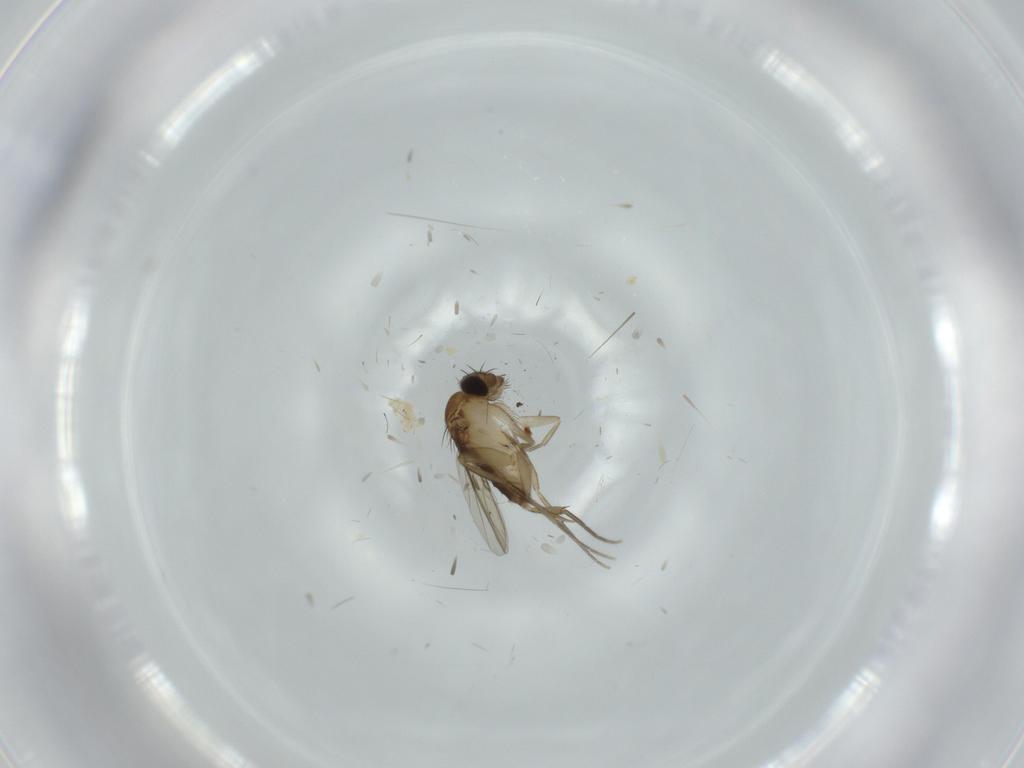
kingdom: Animalia
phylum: Arthropoda
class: Insecta
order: Diptera
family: Phoridae
